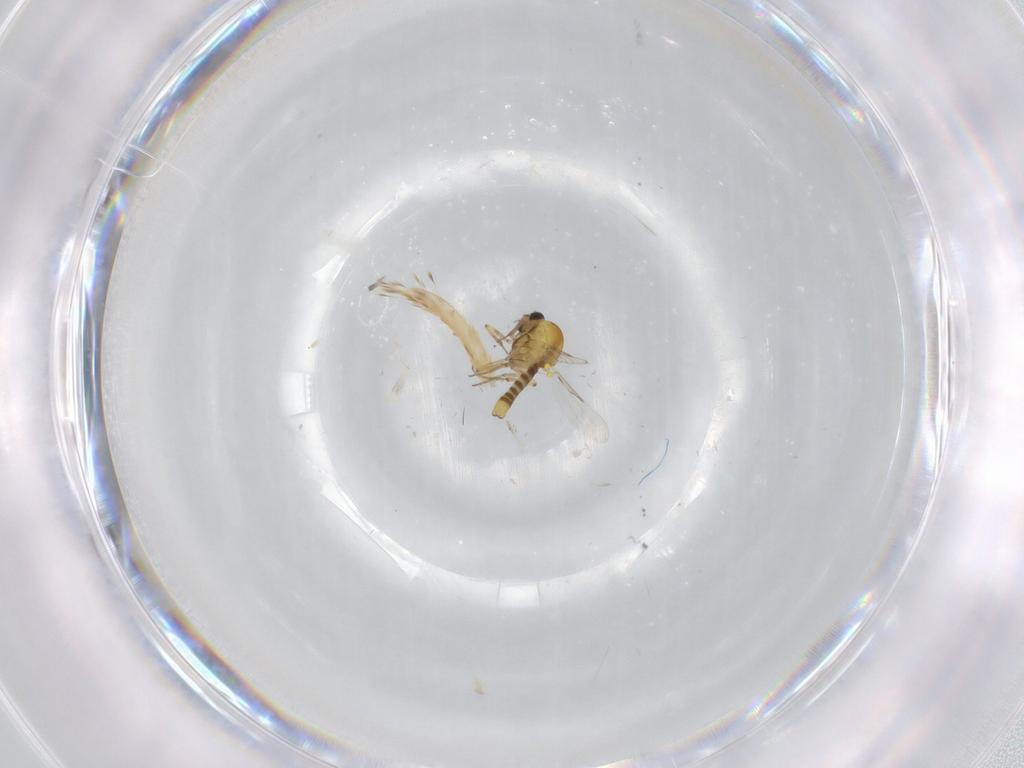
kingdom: Animalia
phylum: Arthropoda
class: Insecta
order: Diptera
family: Ceratopogonidae
